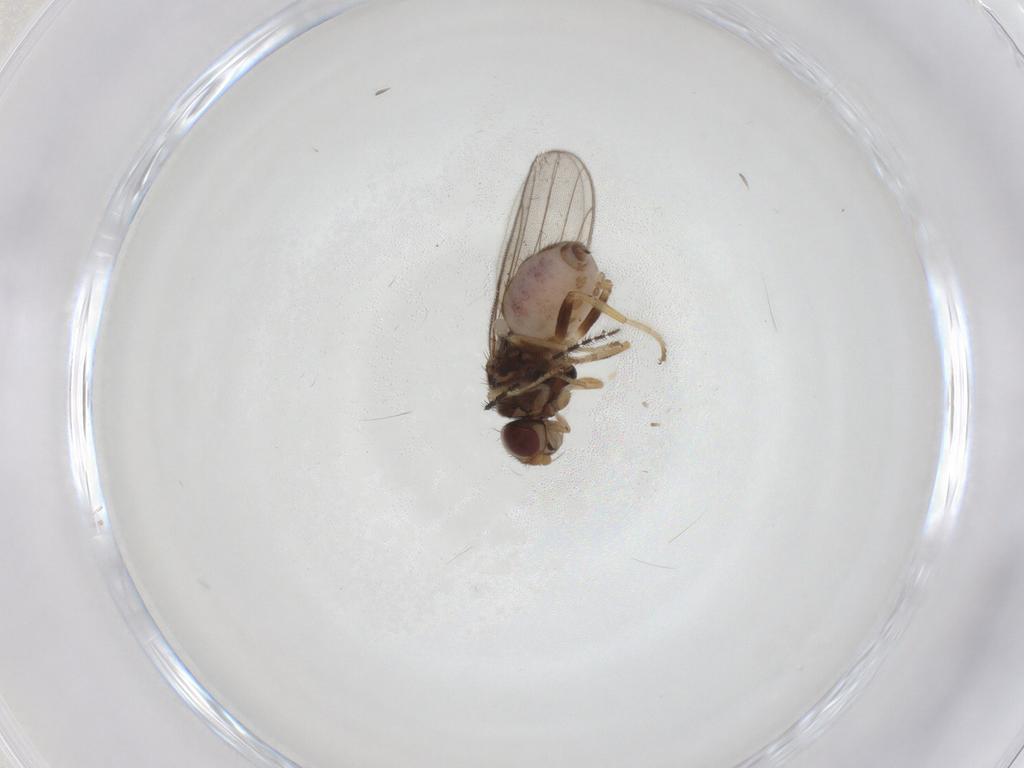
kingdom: Animalia
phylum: Arthropoda
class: Insecta
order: Diptera
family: Chloropidae
